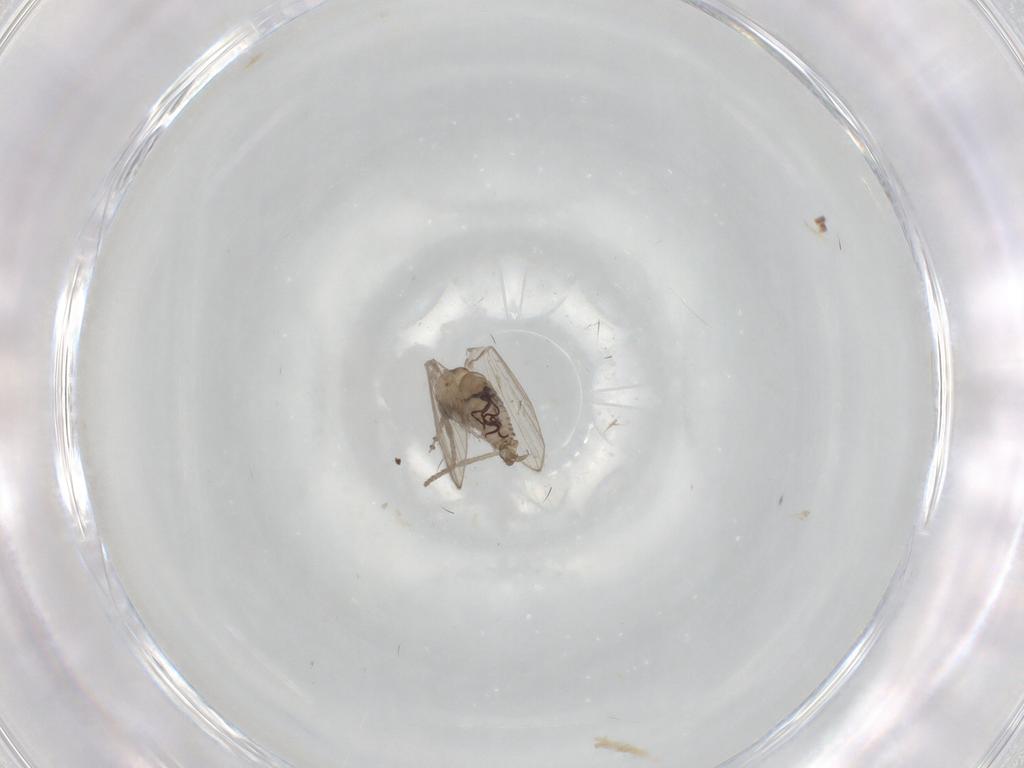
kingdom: Animalia
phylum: Arthropoda
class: Insecta
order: Diptera
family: Psychodidae
